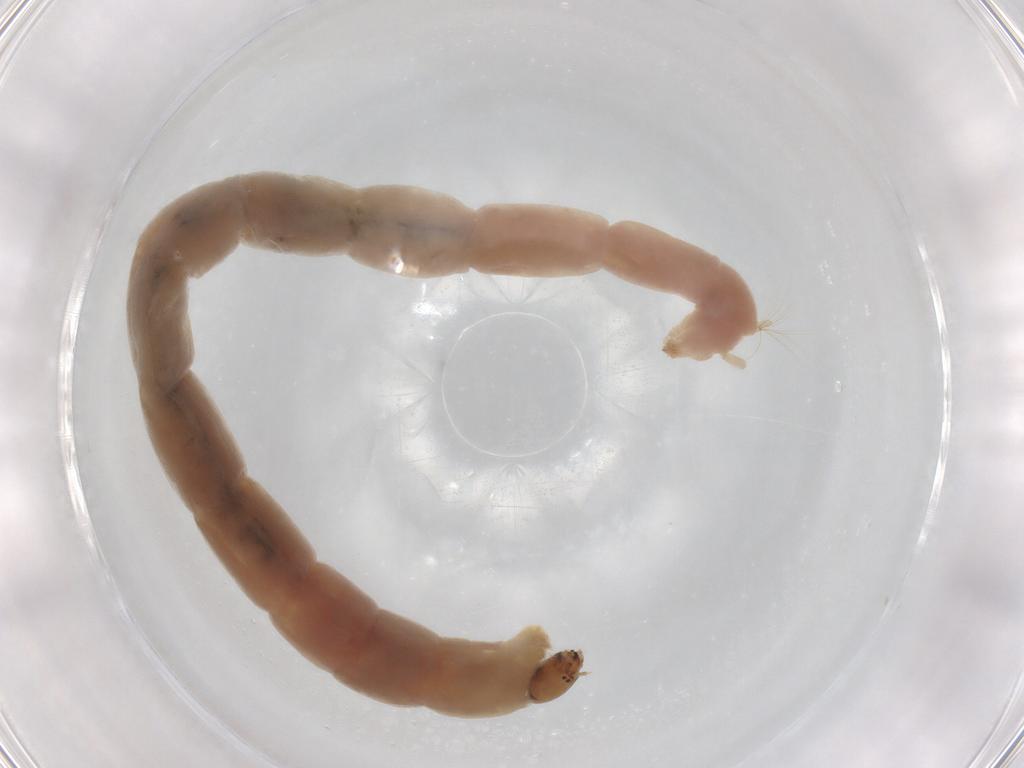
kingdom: Animalia
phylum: Arthropoda
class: Insecta
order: Diptera
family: Chironomidae
